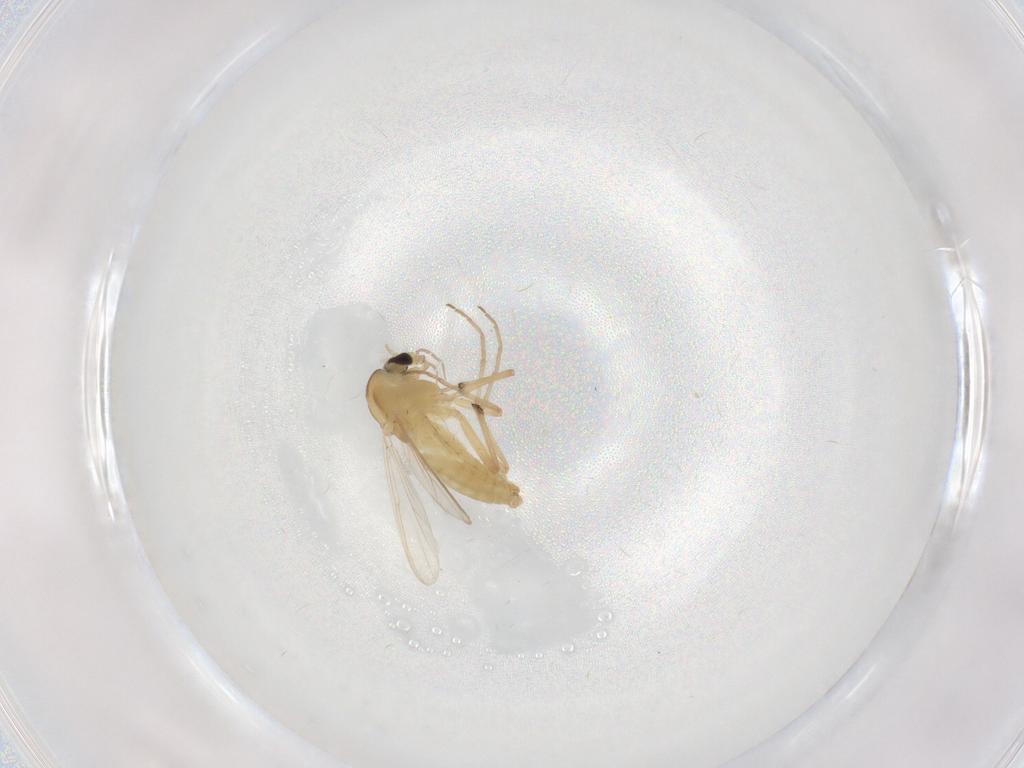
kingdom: Animalia
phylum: Arthropoda
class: Insecta
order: Diptera
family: Chironomidae
